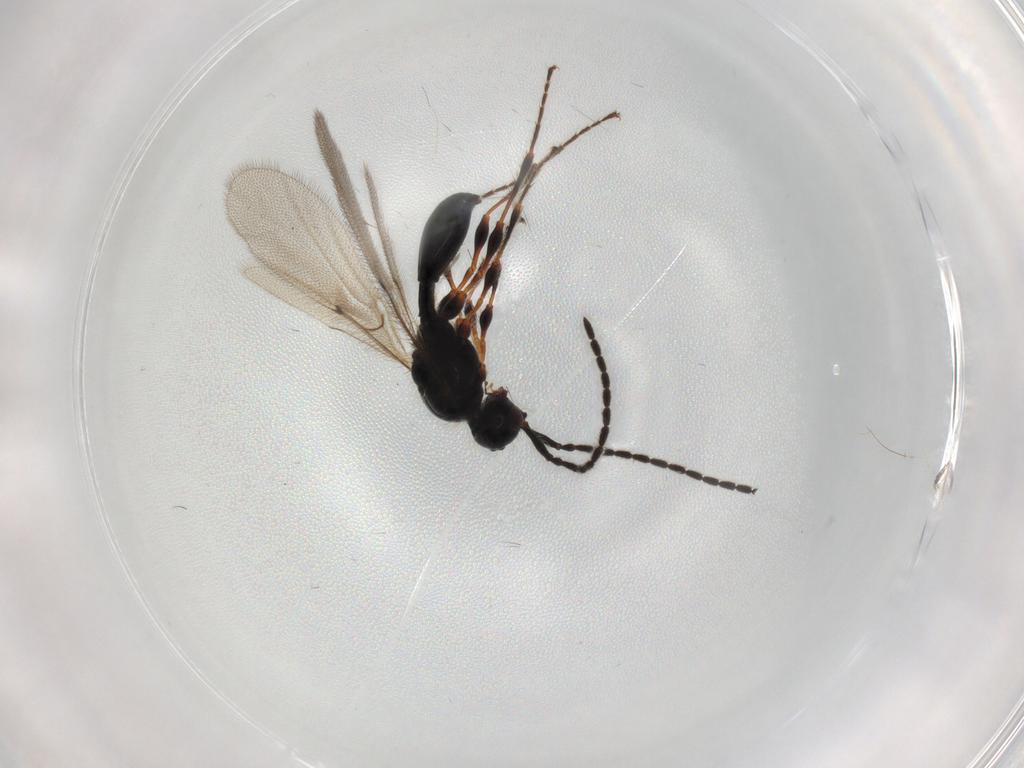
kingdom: Animalia
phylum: Arthropoda
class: Insecta
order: Hymenoptera
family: Diapriidae
